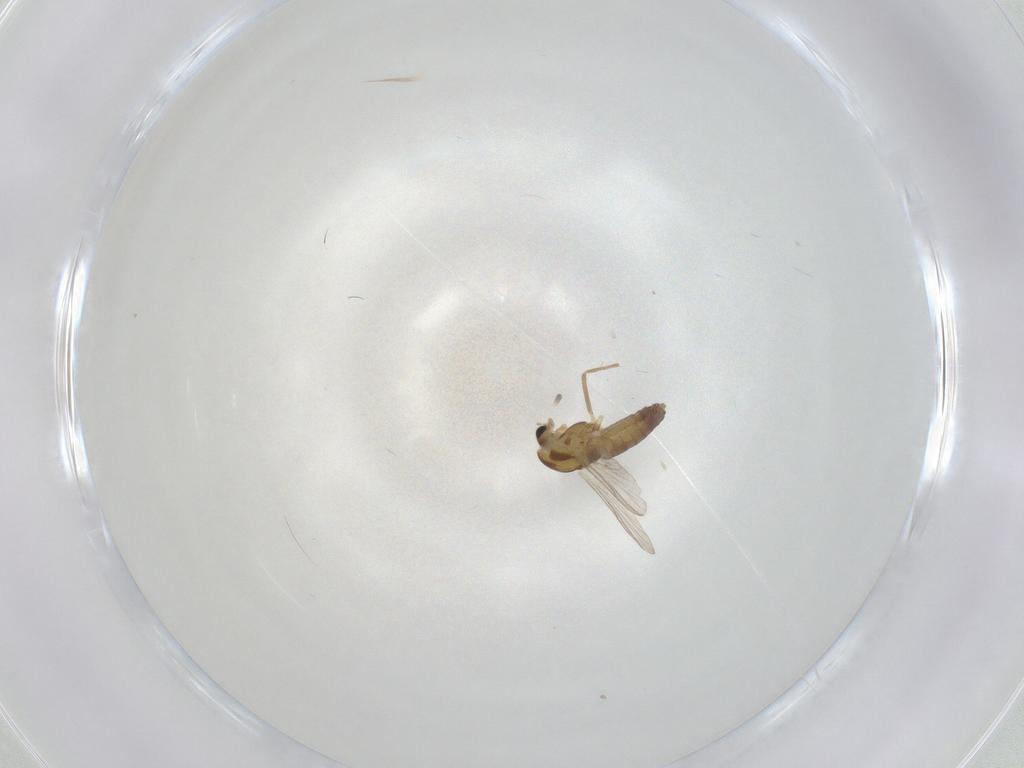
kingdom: Animalia
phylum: Arthropoda
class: Insecta
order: Diptera
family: Chironomidae
